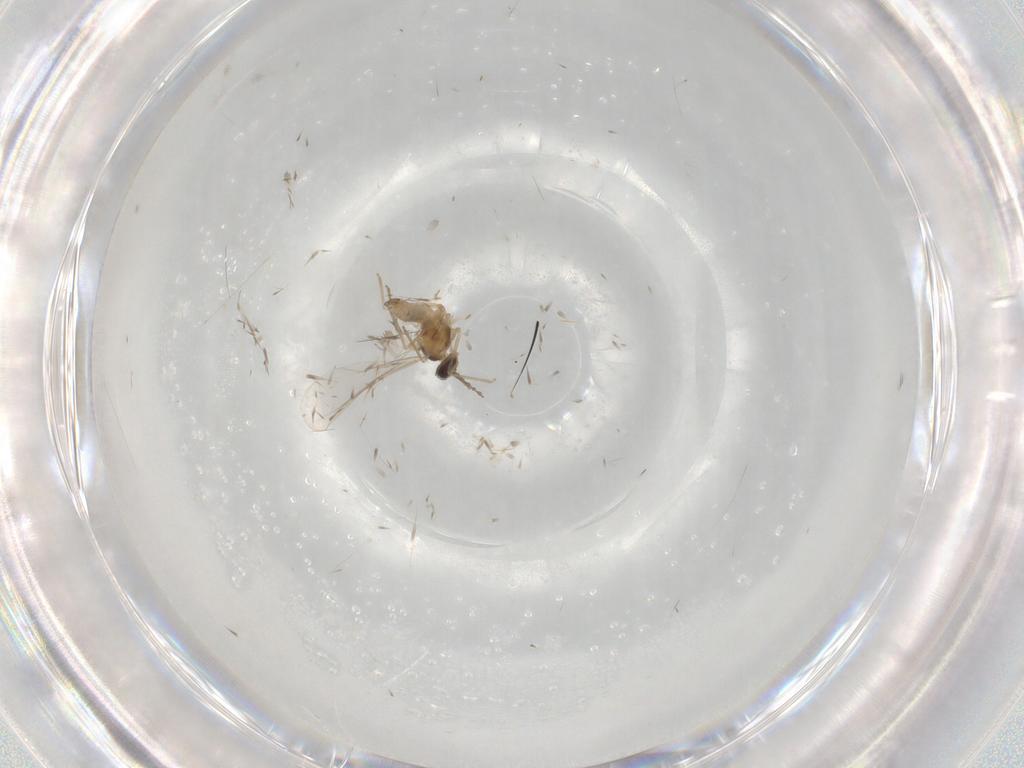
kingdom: Animalia
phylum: Arthropoda
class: Insecta
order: Diptera
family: Cecidomyiidae
